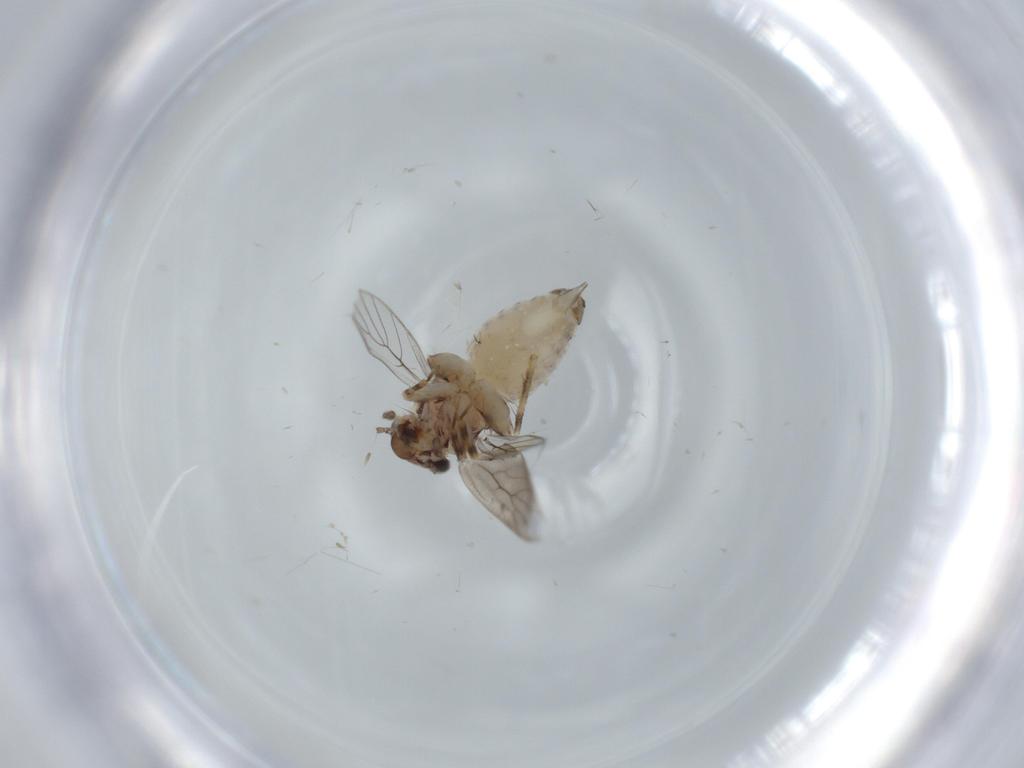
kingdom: Animalia
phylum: Arthropoda
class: Insecta
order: Psocodea
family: Lepidopsocidae
